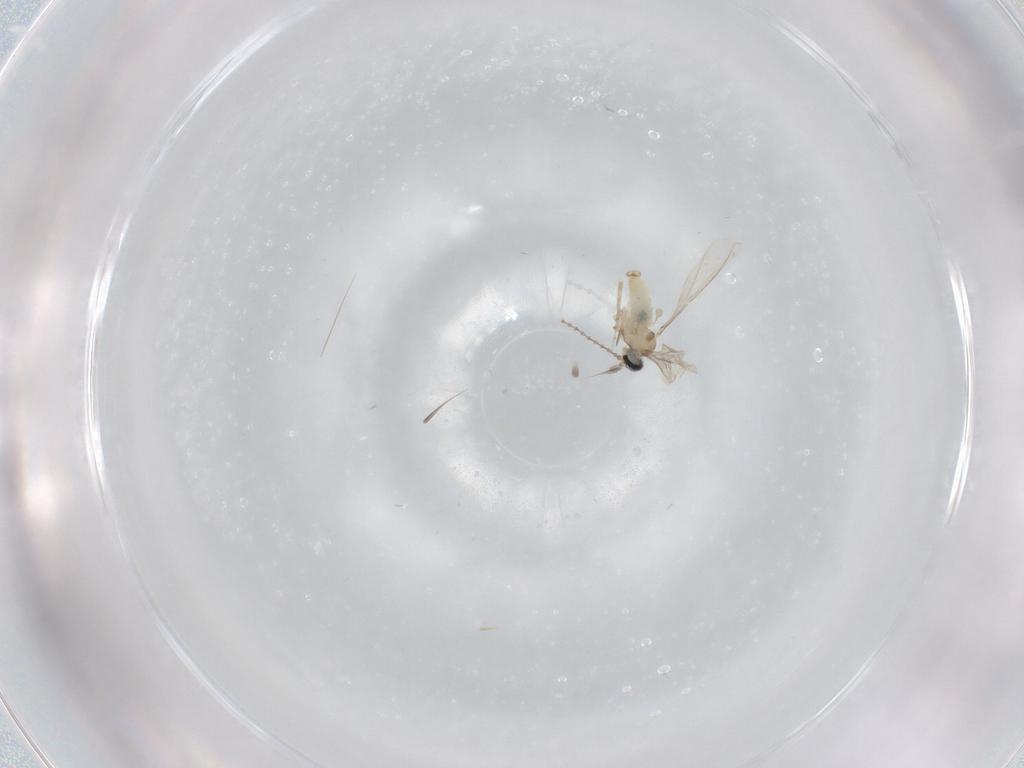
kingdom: Animalia
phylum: Arthropoda
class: Insecta
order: Diptera
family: Cecidomyiidae
